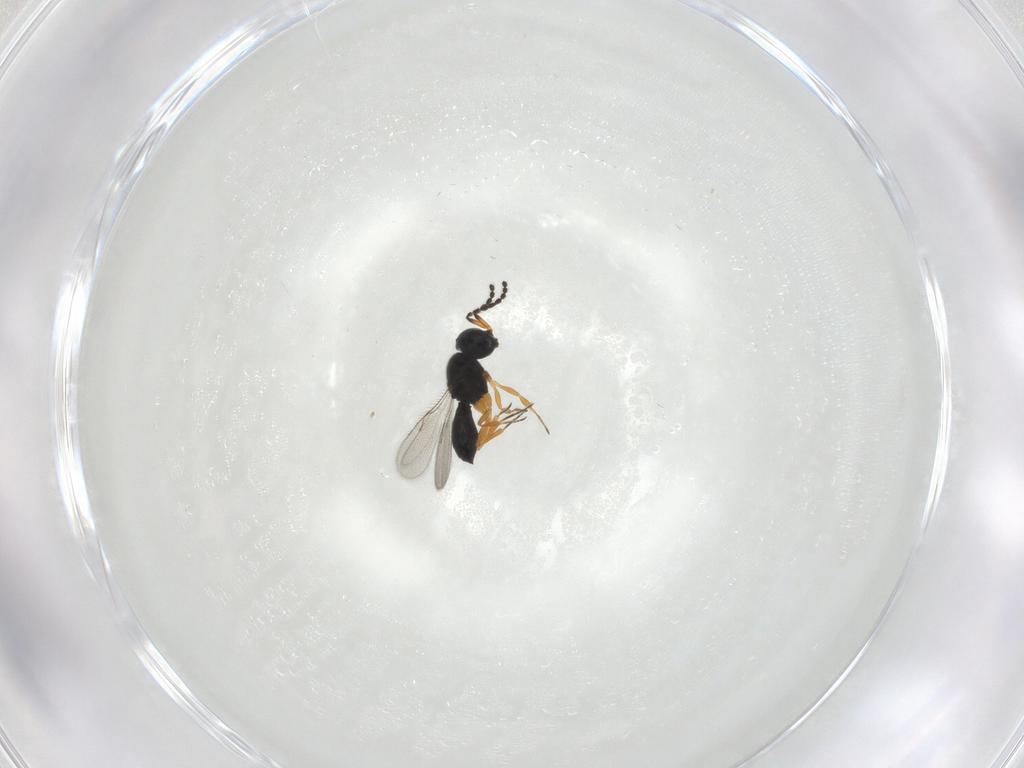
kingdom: Animalia
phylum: Arthropoda
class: Insecta
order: Hymenoptera
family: Scelionidae
